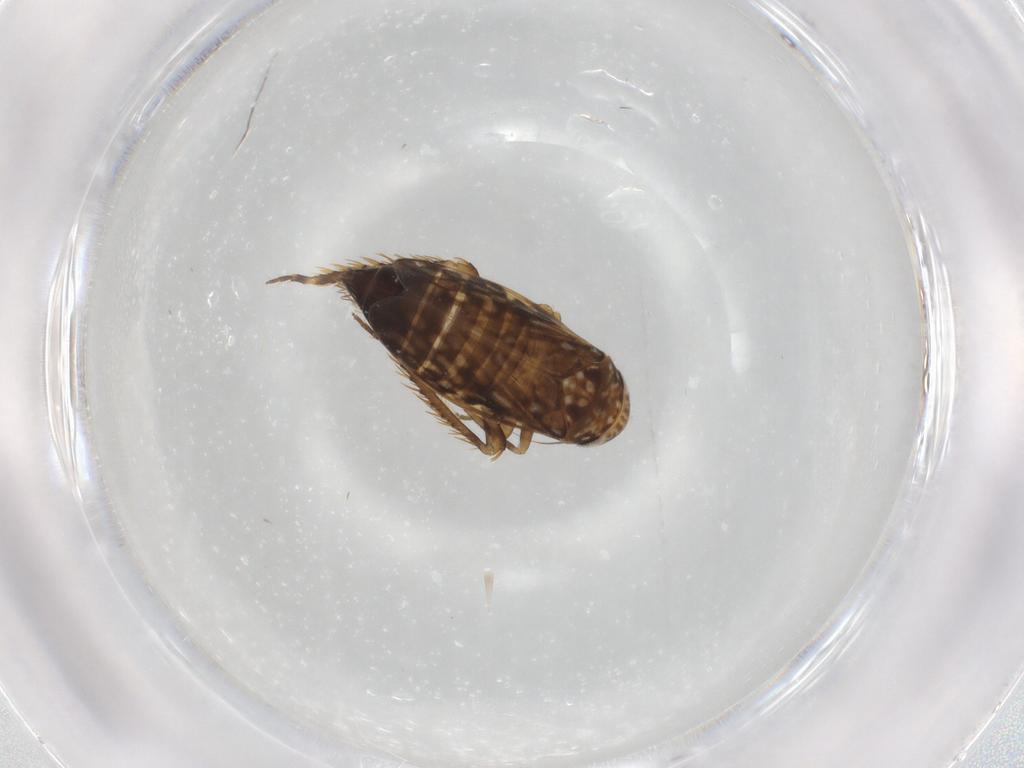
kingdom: Animalia
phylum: Arthropoda
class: Insecta
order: Hemiptera
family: Cicadellidae
